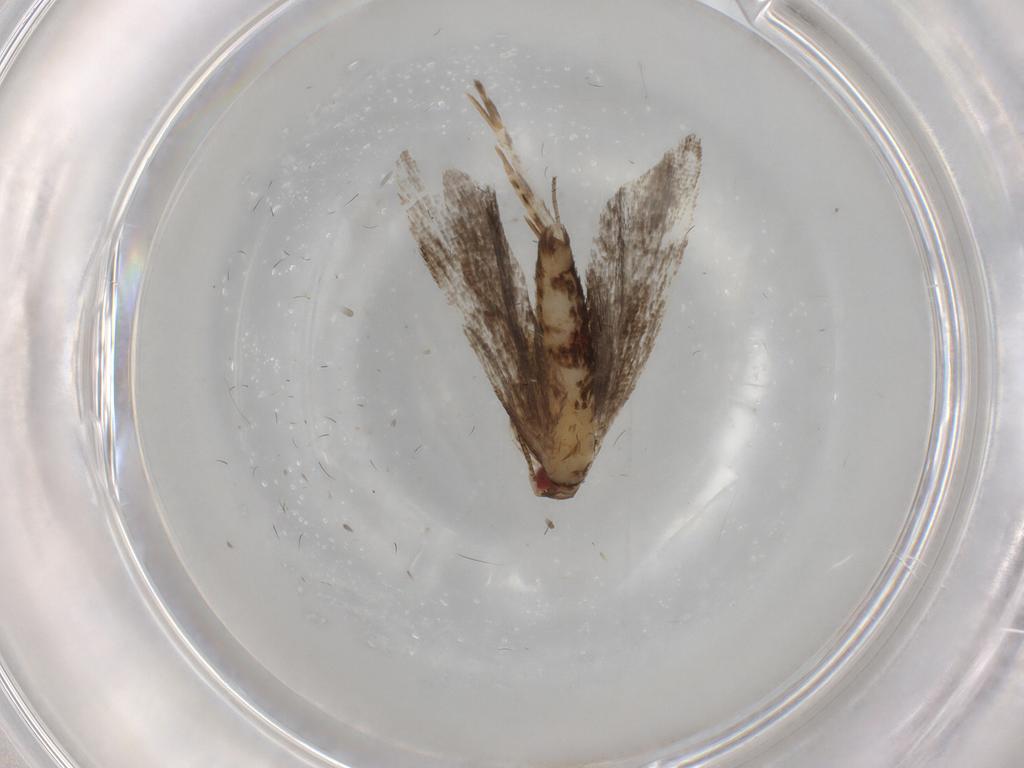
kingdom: Animalia
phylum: Arthropoda
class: Insecta
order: Lepidoptera
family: Gelechiidae
